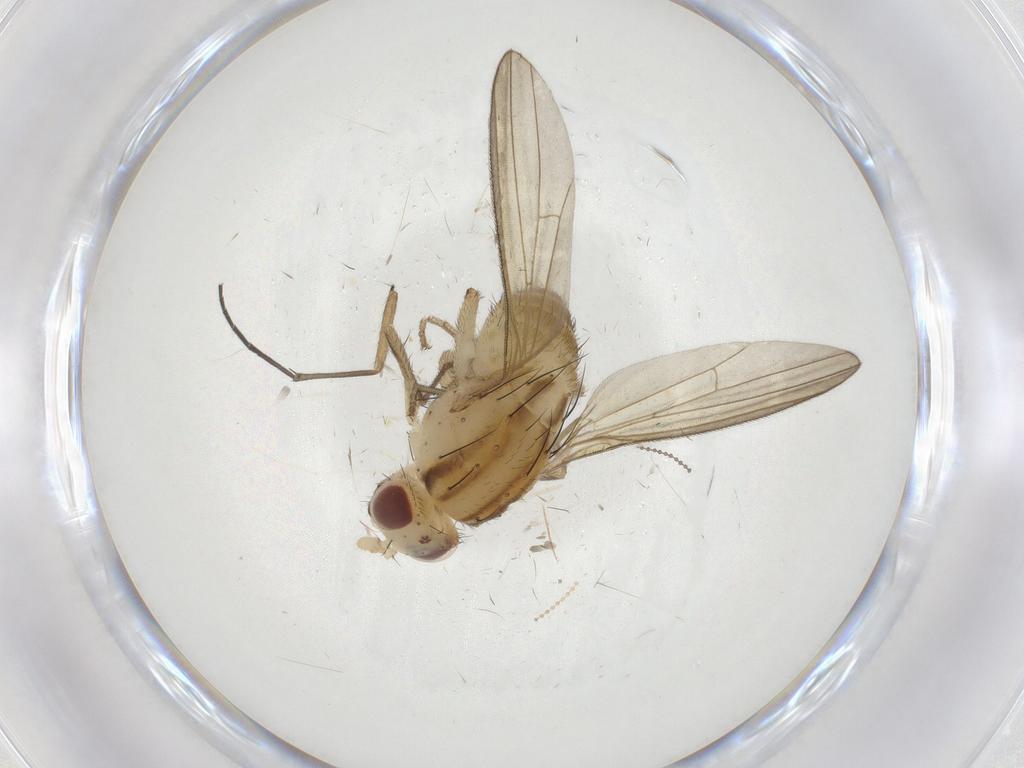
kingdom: Animalia
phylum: Arthropoda
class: Insecta
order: Diptera
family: Lauxaniidae
